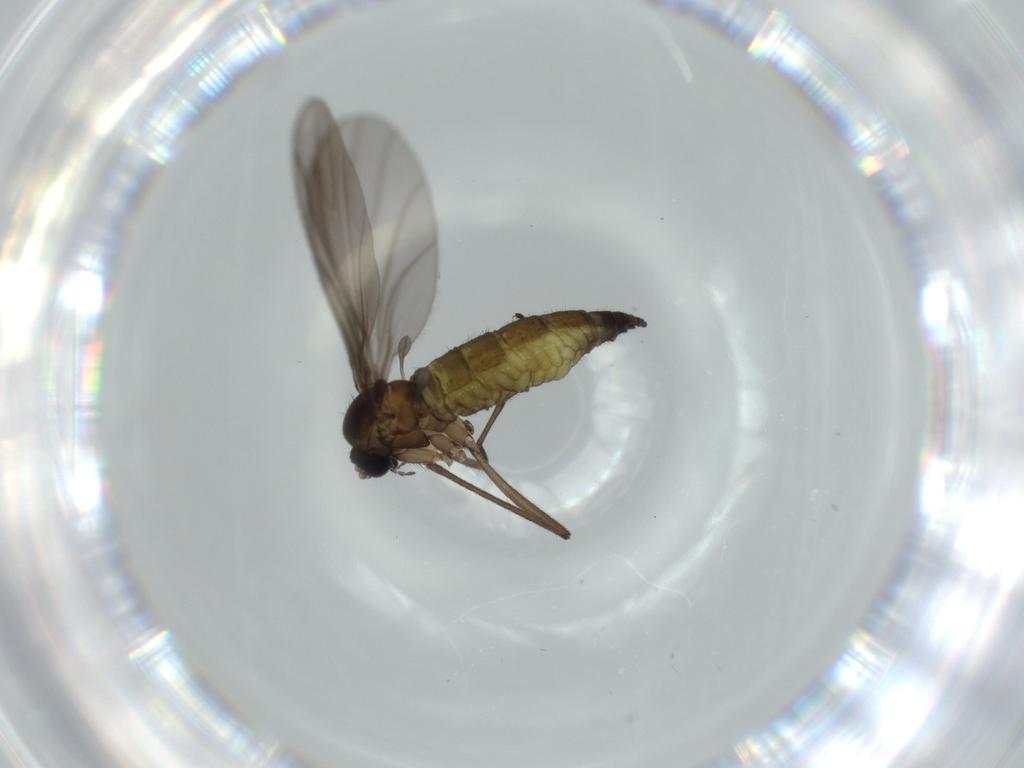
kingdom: Animalia
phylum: Arthropoda
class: Insecta
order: Diptera
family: Sciaridae
